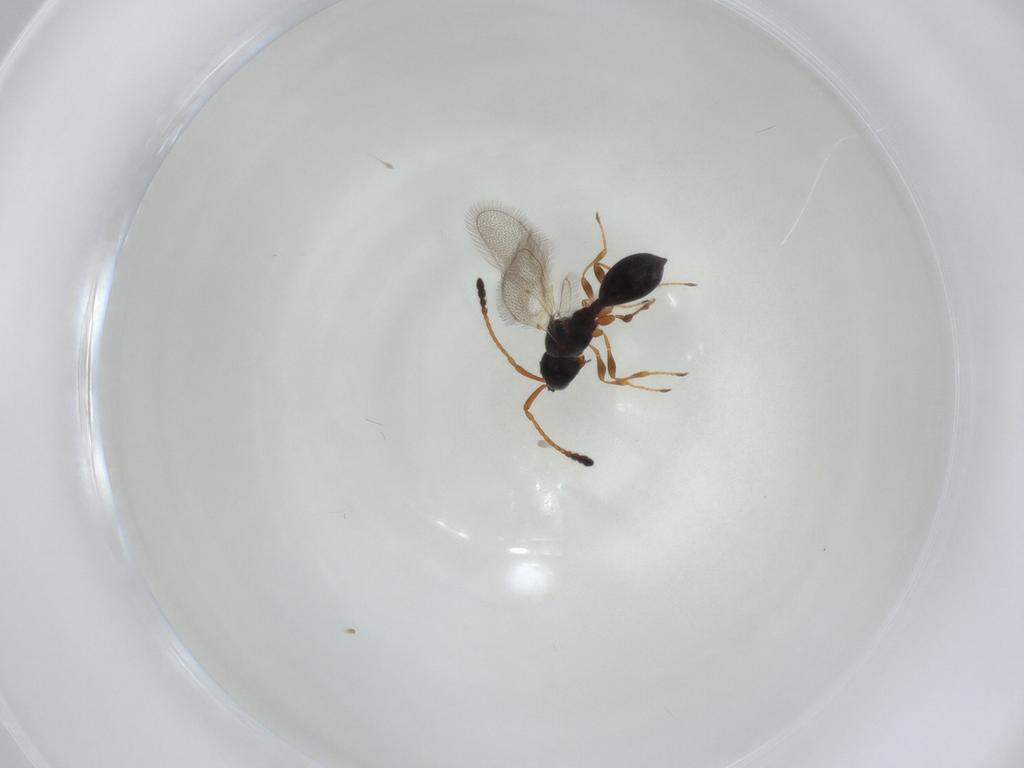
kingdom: Animalia
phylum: Arthropoda
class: Insecta
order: Hymenoptera
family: Diapriidae
